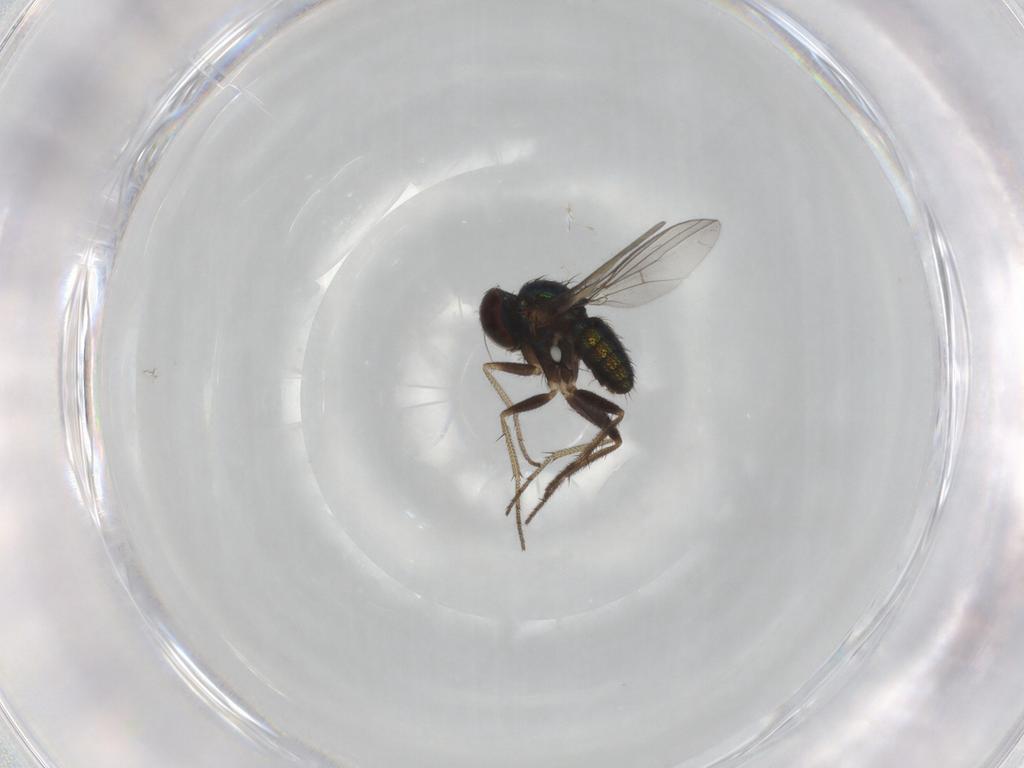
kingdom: Animalia
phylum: Arthropoda
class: Insecta
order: Diptera
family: Dolichopodidae
